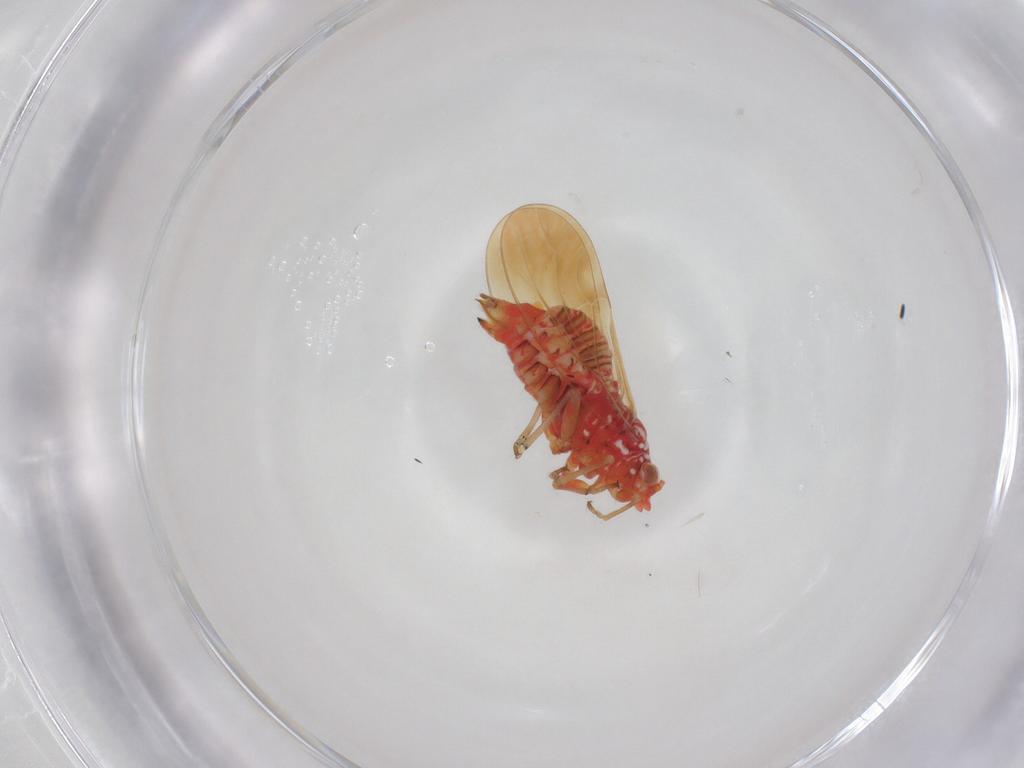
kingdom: Animalia
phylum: Arthropoda
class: Insecta
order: Hemiptera
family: Psyllidae
